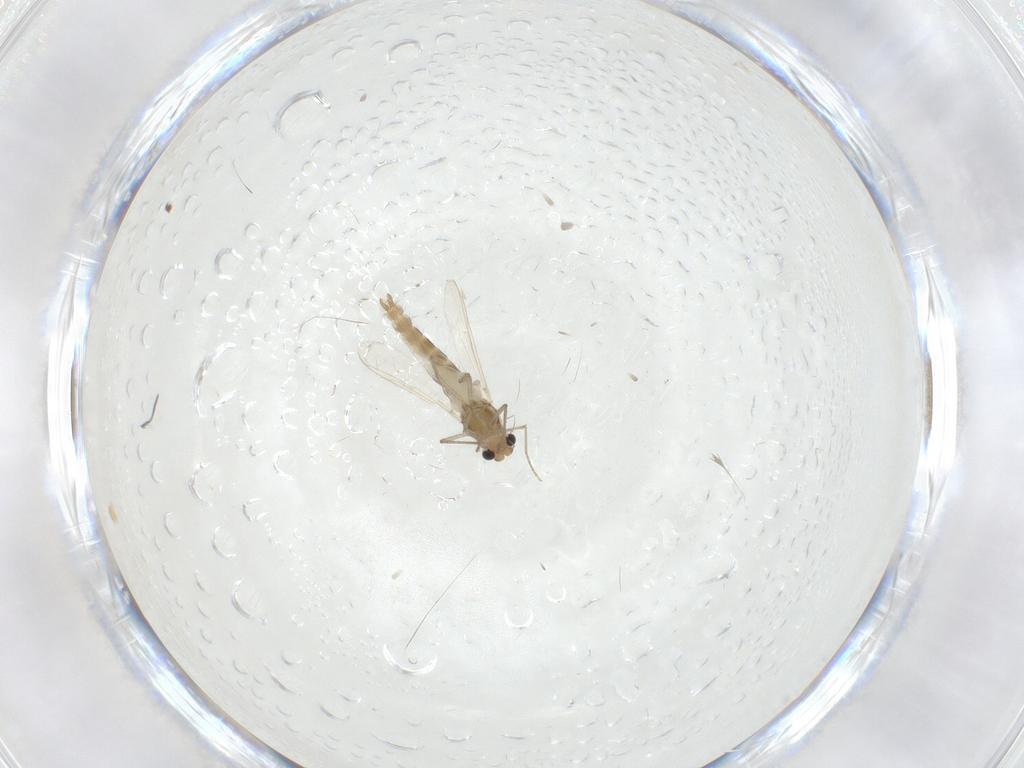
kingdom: Animalia
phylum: Arthropoda
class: Insecta
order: Diptera
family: Chironomidae
